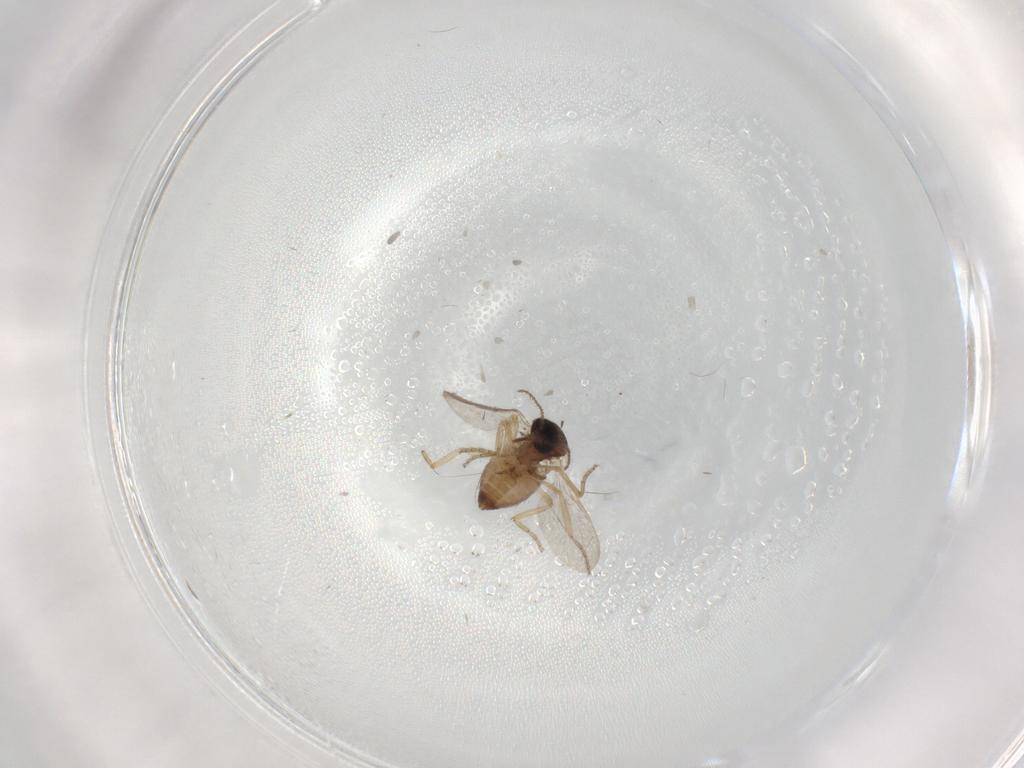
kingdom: Animalia
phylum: Arthropoda
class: Insecta
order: Diptera
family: Ceratopogonidae
